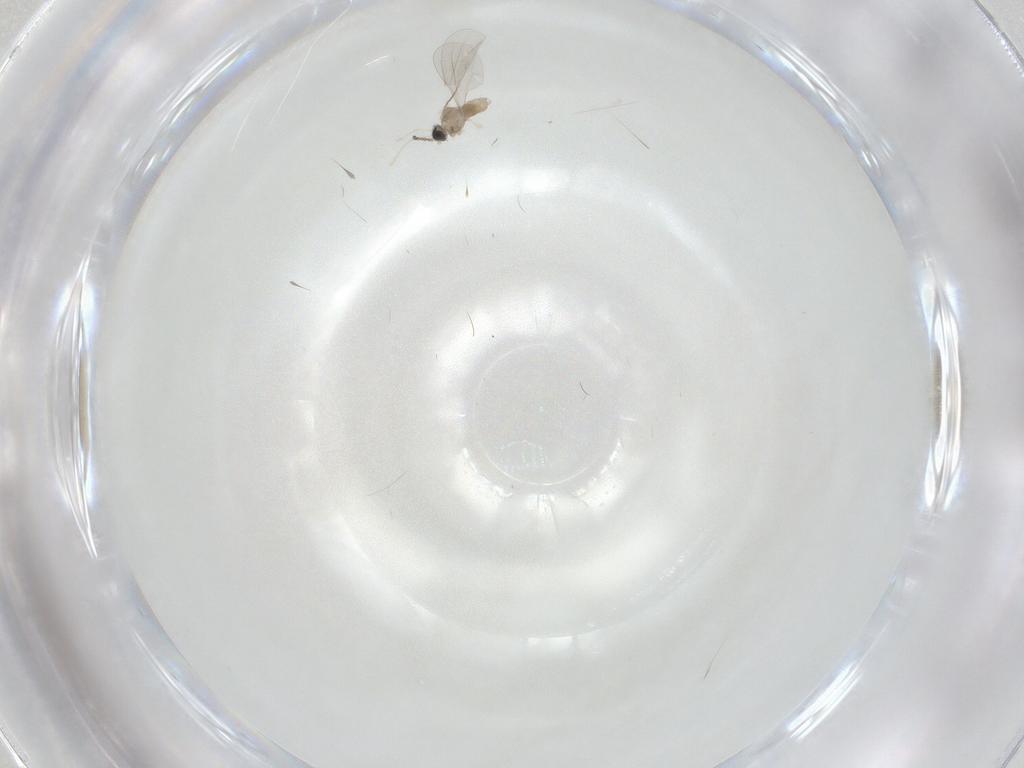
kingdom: Animalia
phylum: Arthropoda
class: Insecta
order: Diptera
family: Cecidomyiidae
